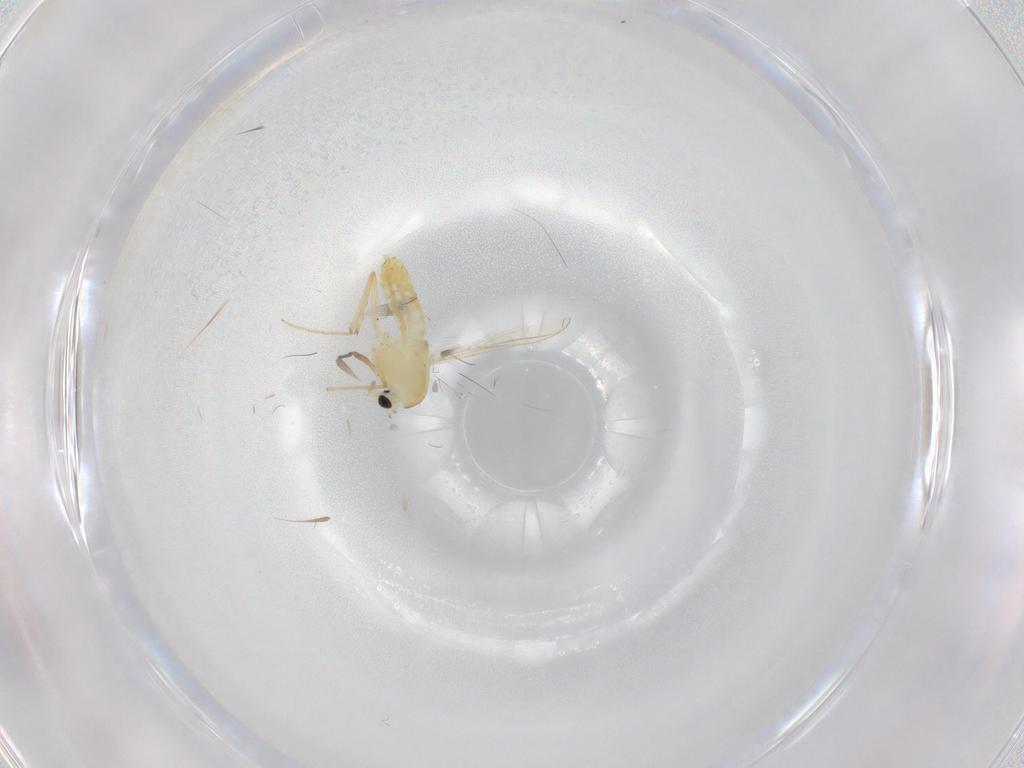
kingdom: Animalia
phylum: Arthropoda
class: Insecta
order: Diptera
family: Chironomidae
